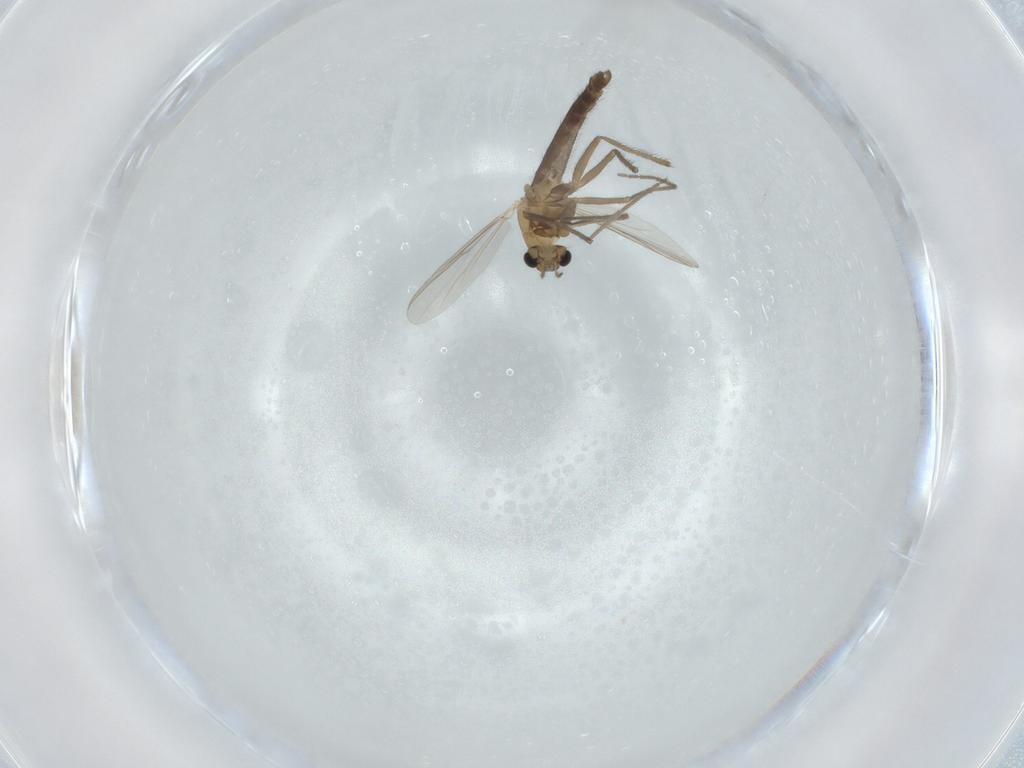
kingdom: Animalia
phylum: Arthropoda
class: Insecta
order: Diptera
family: Chironomidae
